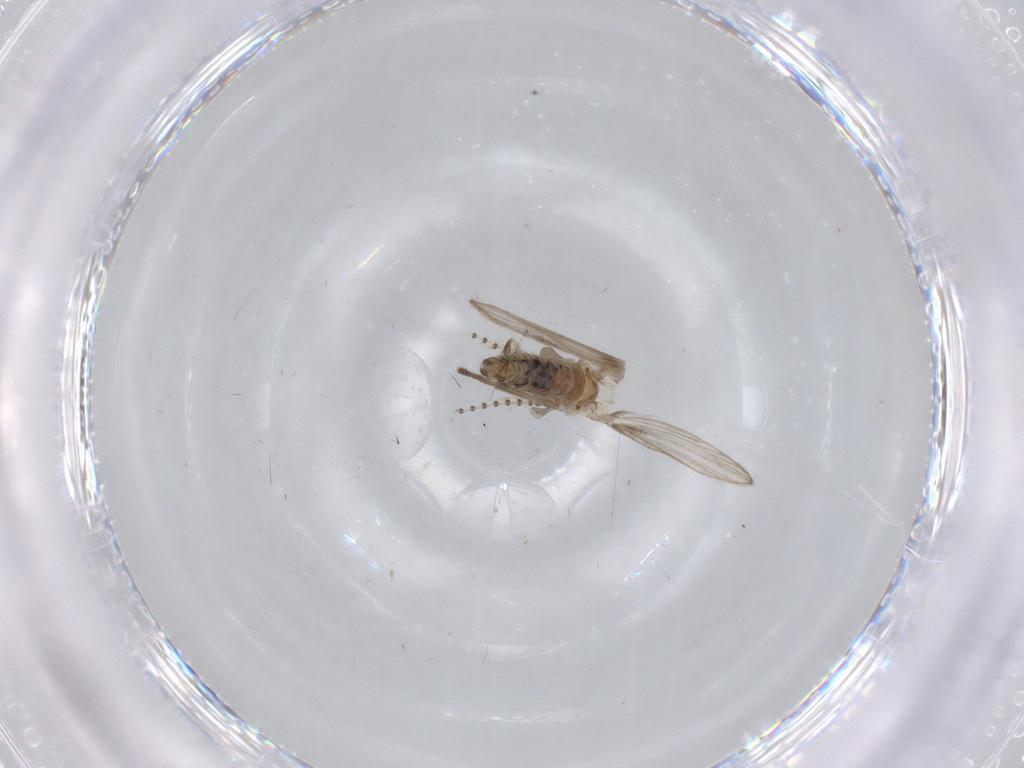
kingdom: Animalia
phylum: Arthropoda
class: Insecta
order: Diptera
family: Psychodidae
